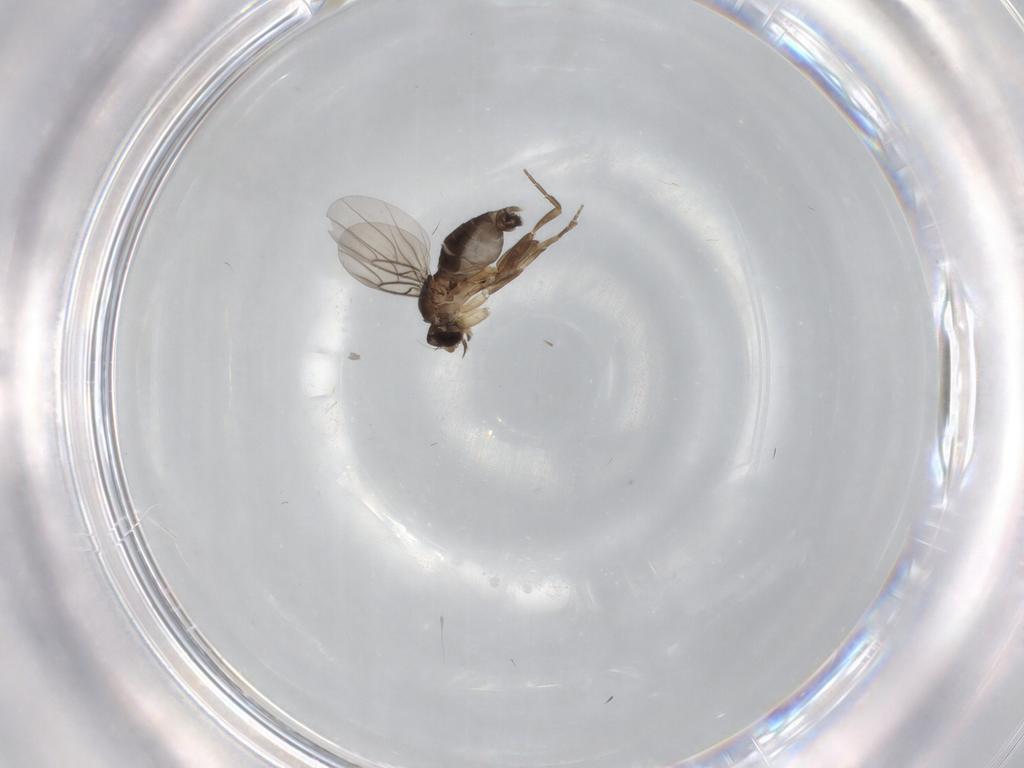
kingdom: Animalia
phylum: Arthropoda
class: Insecta
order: Diptera
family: Phoridae
